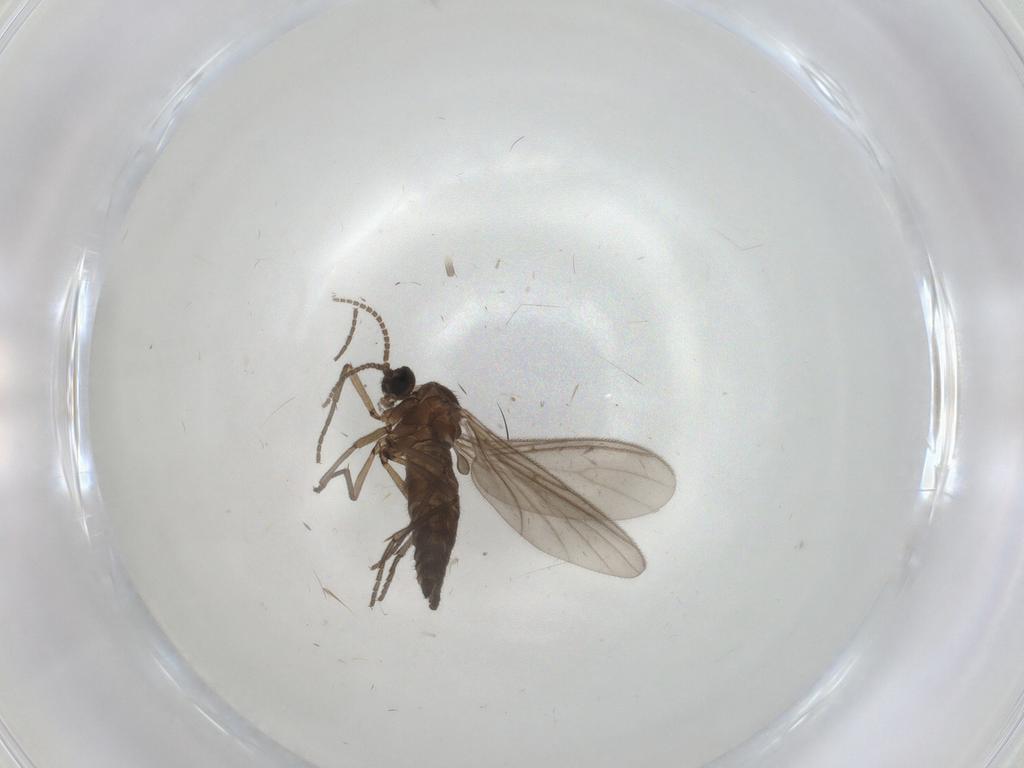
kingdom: Animalia
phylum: Arthropoda
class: Insecta
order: Diptera
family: Sciaridae
